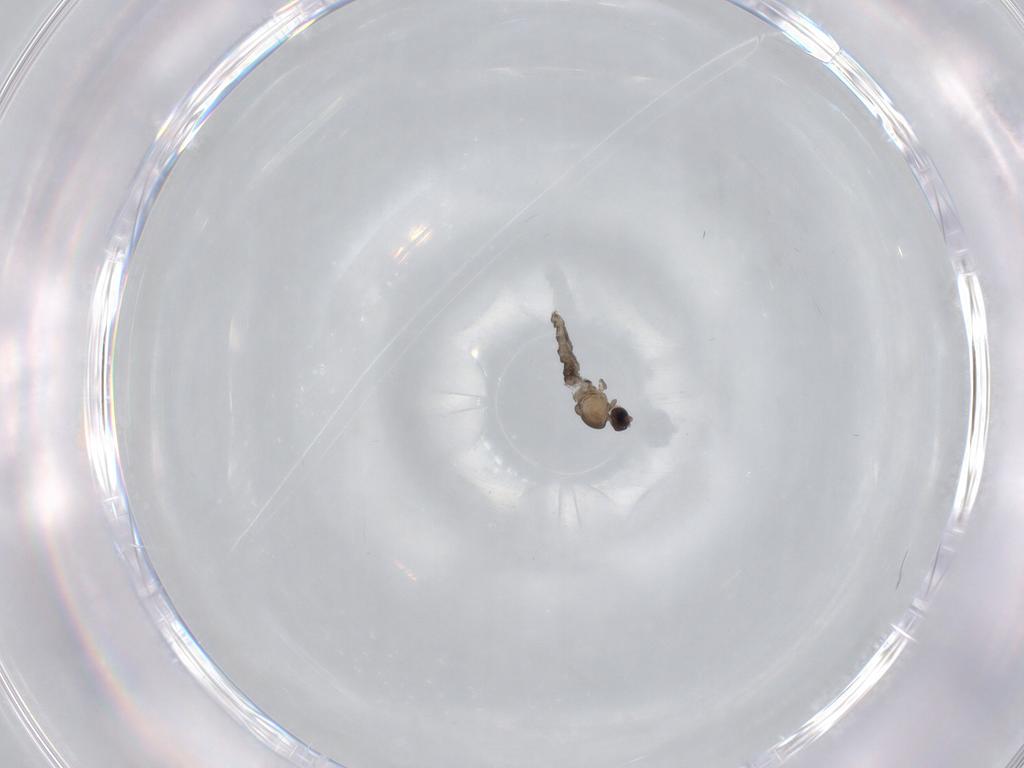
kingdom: Animalia
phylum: Arthropoda
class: Insecta
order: Diptera
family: Cecidomyiidae
